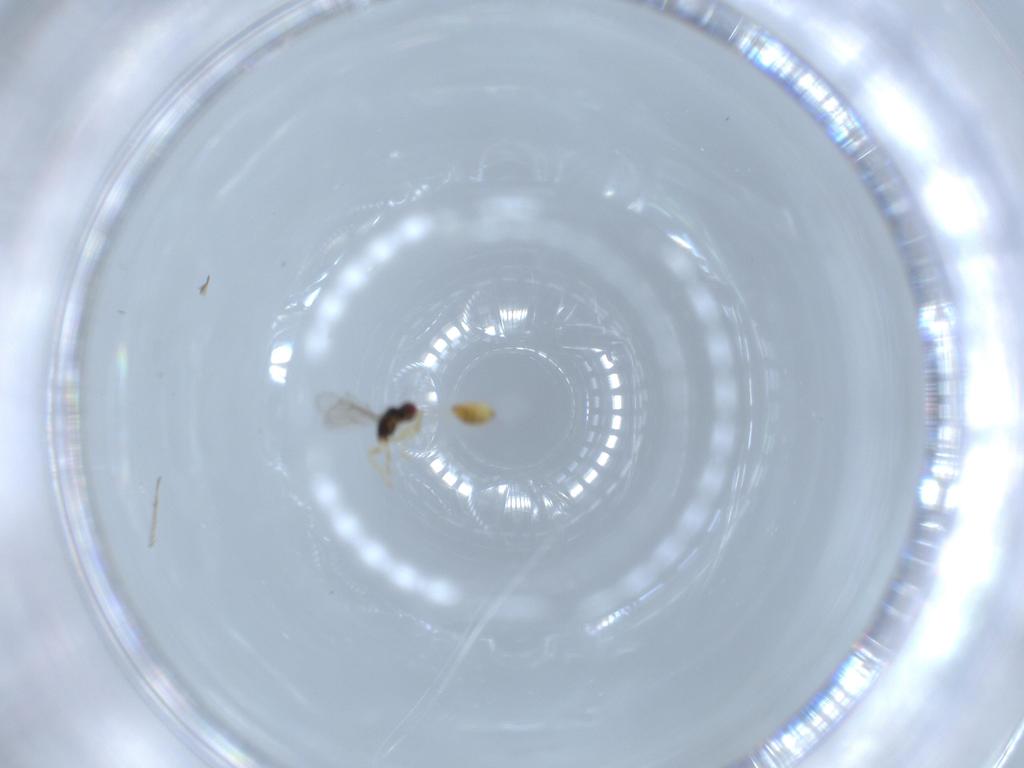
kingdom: Animalia
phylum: Arthropoda
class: Insecta
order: Hymenoptera
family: Eulophidae
